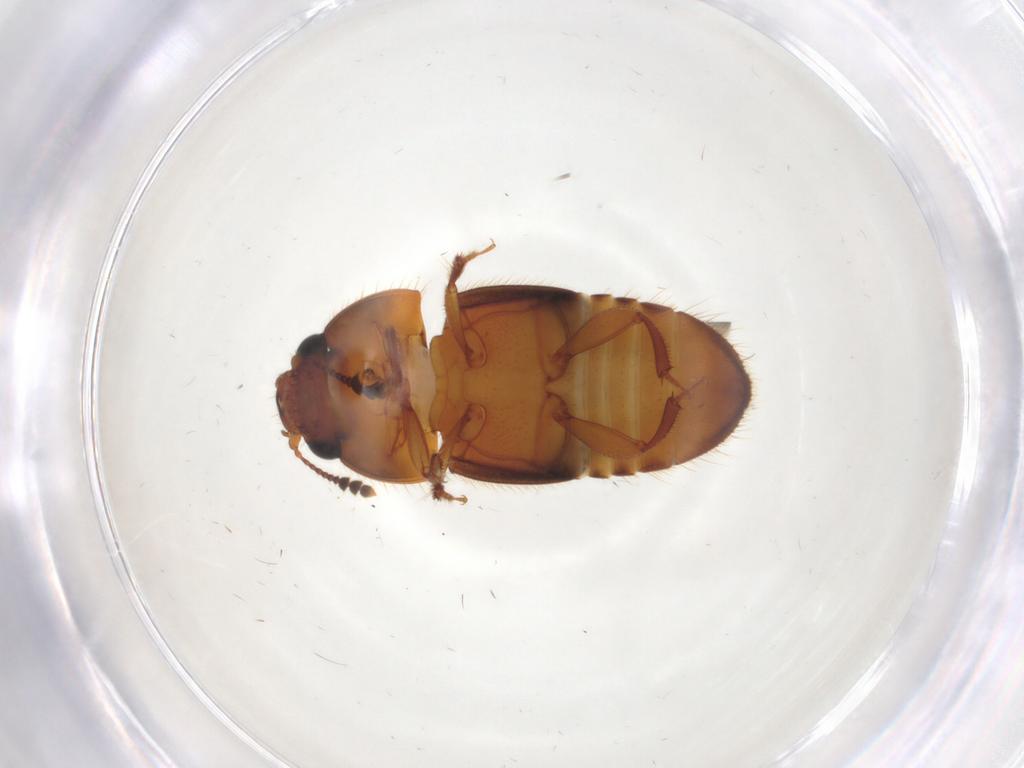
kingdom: Animalia
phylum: Arthropoda
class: Insecta
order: Coleoptera
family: Nitidulidae
